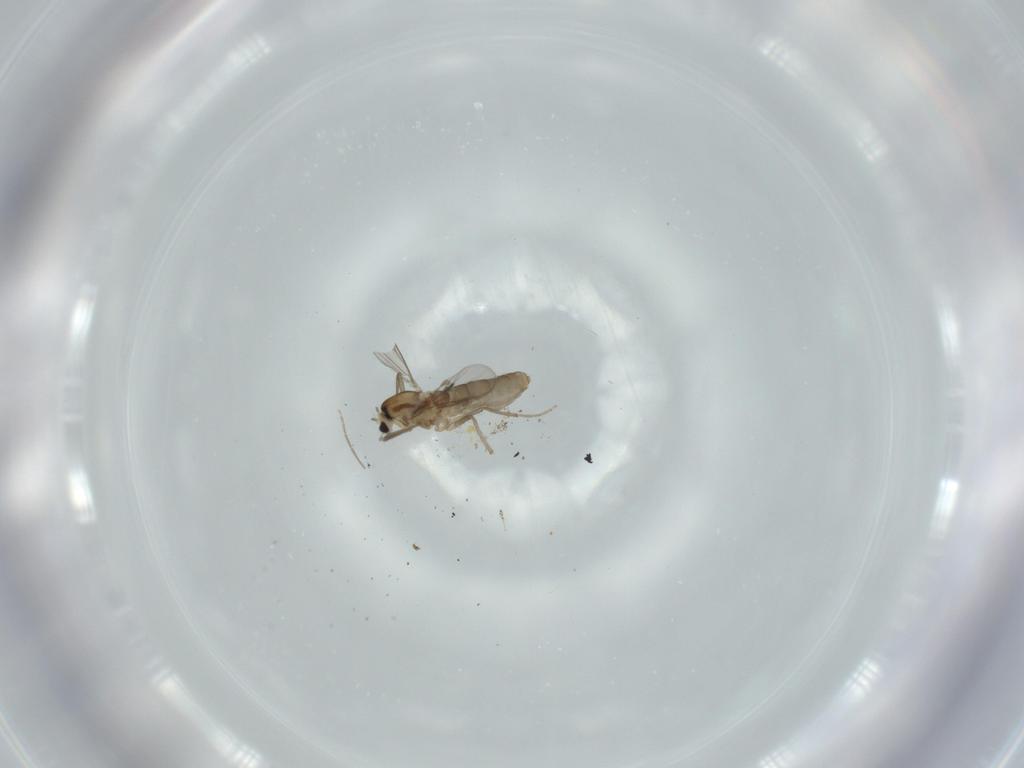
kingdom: Animalia
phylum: Arthropoda
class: Insecta
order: Diptera
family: Chironomidae
